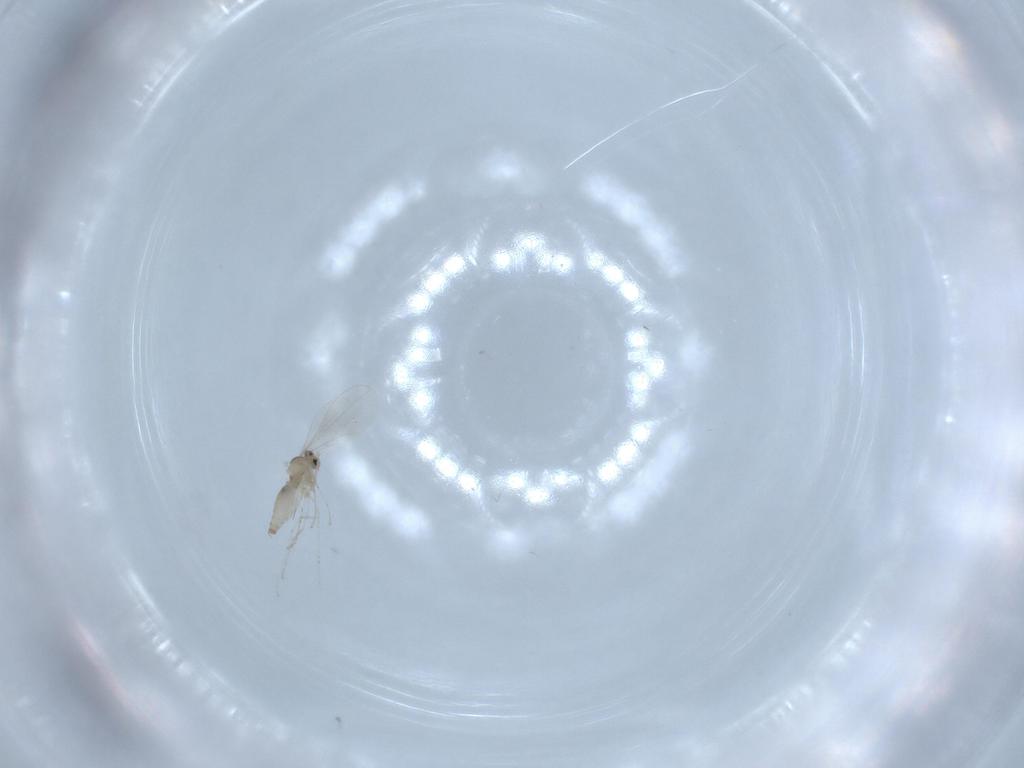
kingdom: Animalia
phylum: Arthropoda
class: Insecta
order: Diptera
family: Cecidomyiidae
